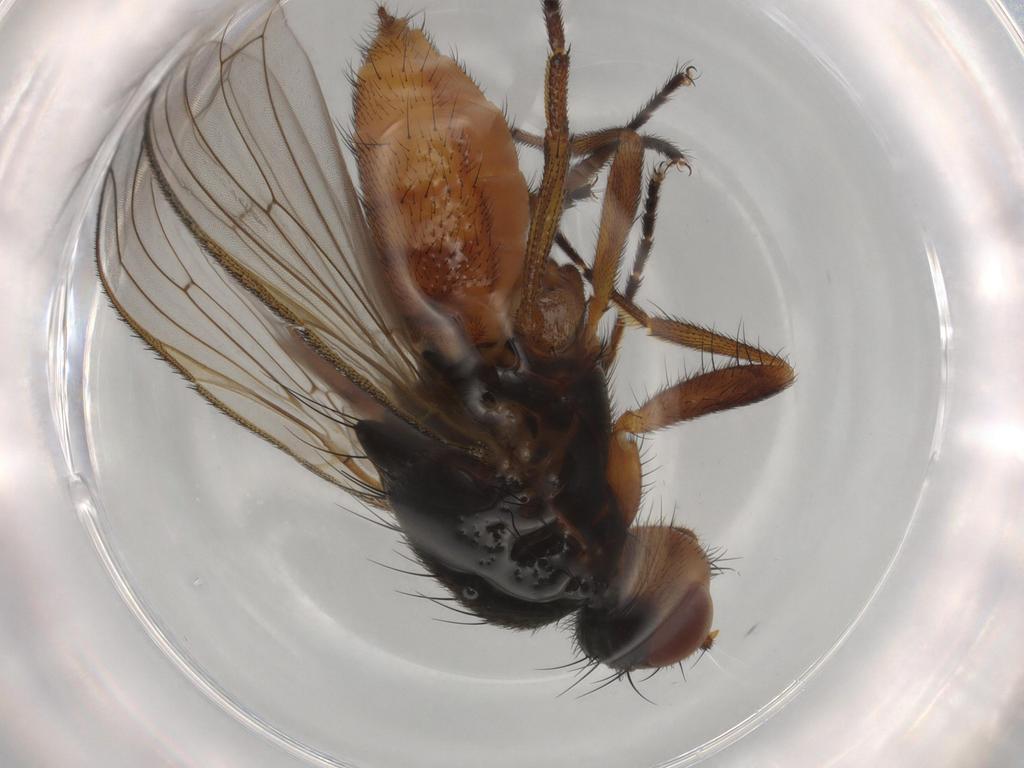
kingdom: Animalia
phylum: Arthropoda
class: Insecta
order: Diptera
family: Heleomyzidae
